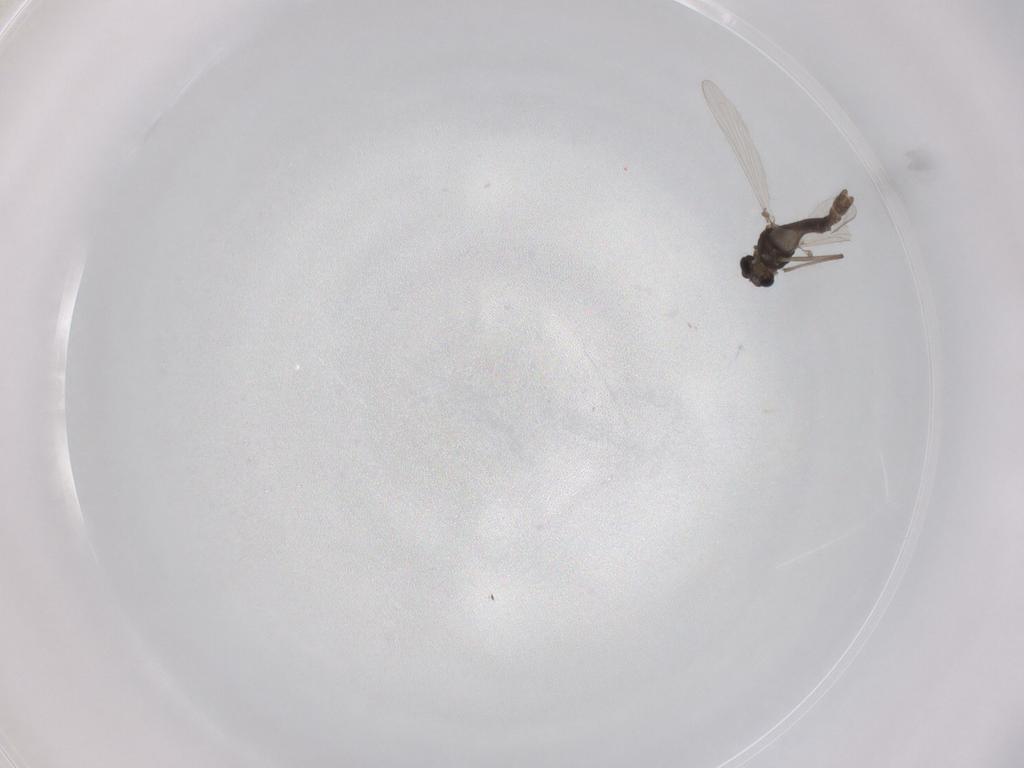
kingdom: Animalia
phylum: Arthropoda
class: Insecta
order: Diptera
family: Chironomidae
